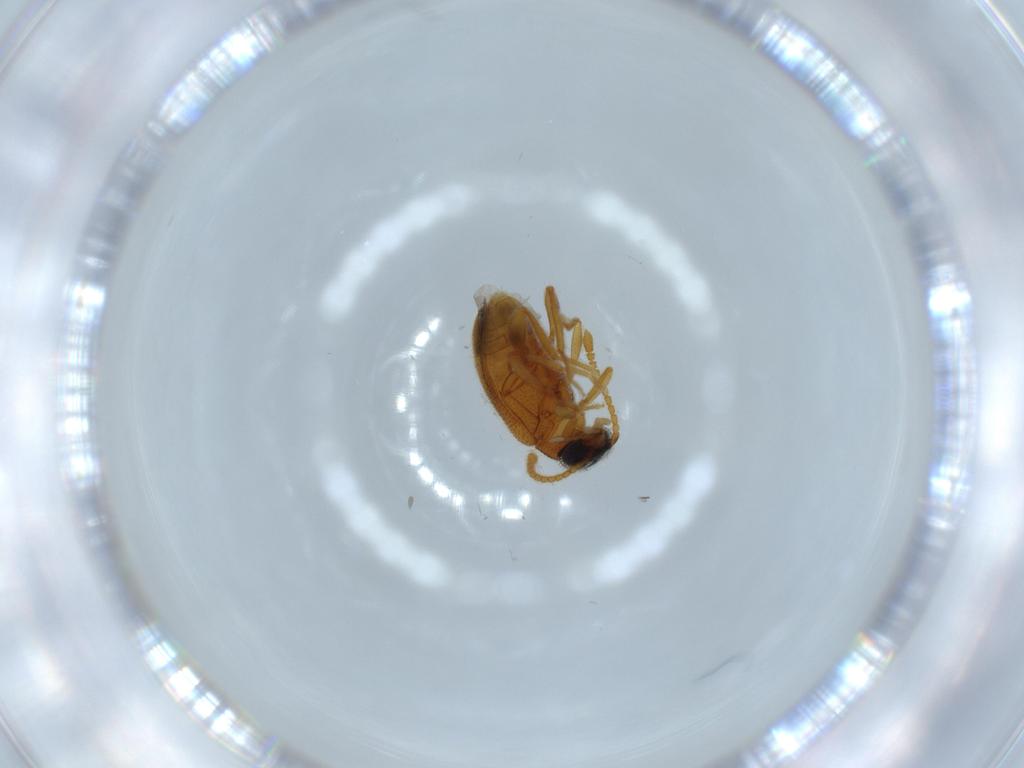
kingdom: Animalia
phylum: Arthropoda
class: Insecta
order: Coleoptera
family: Aderidae
